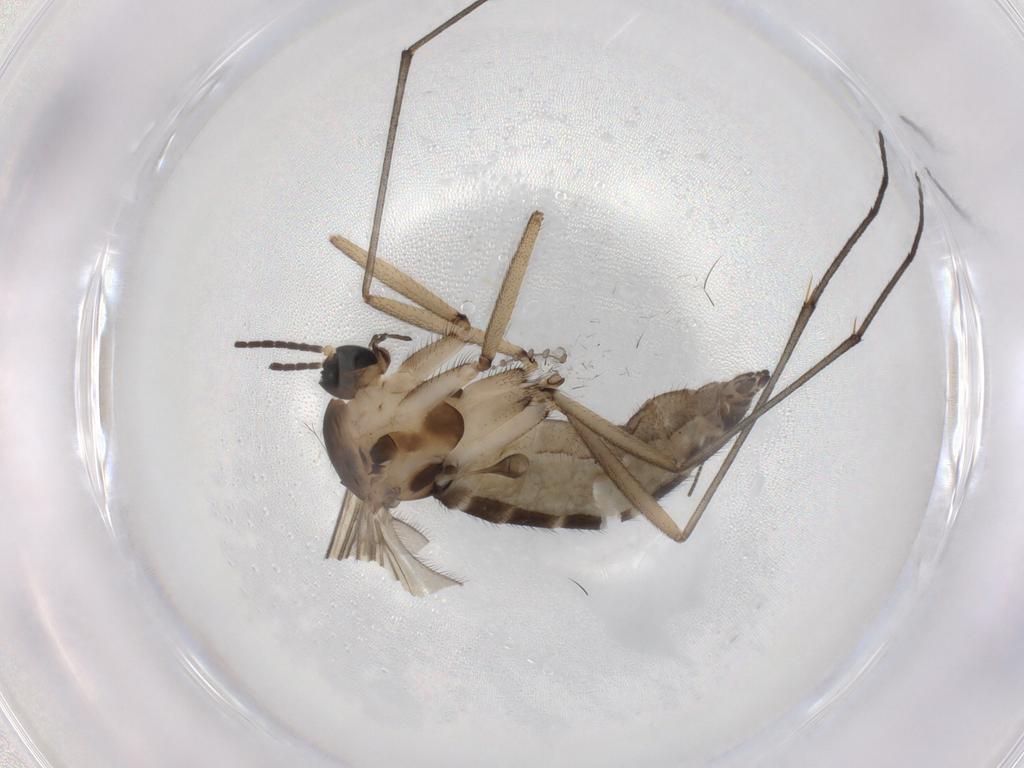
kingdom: Animalia
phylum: Arthropoda
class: Insecta
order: Diptera
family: Sciaridae
